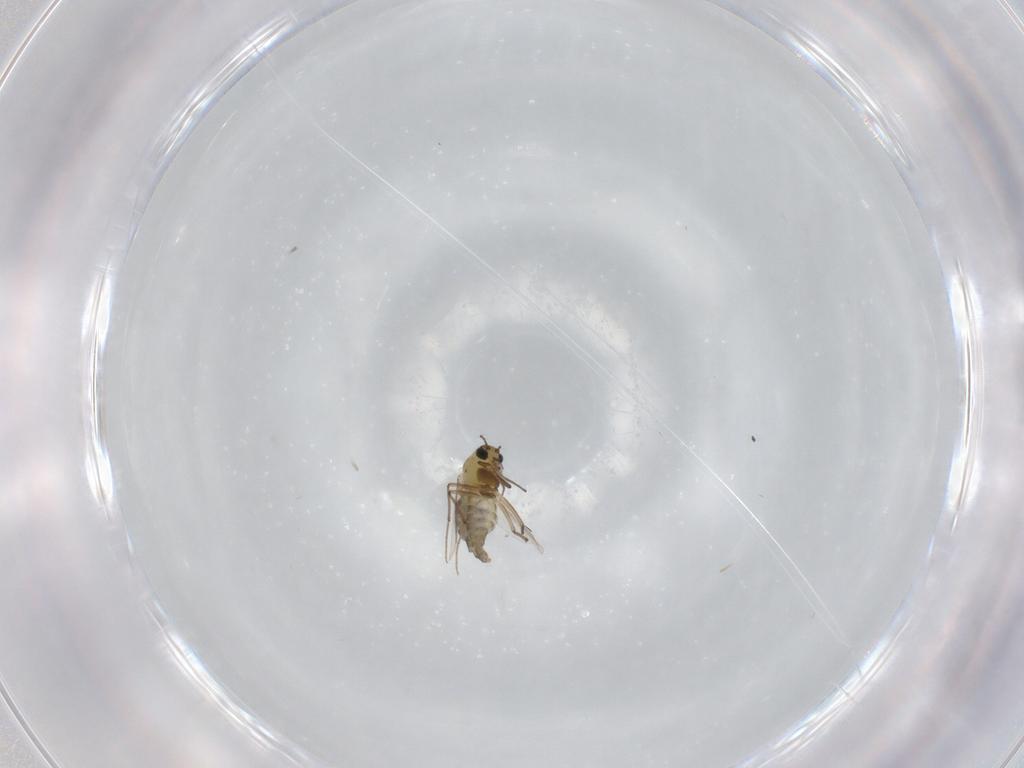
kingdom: Animalia
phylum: Arthropoda
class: Insecta
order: Diptera
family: Chironomidae
